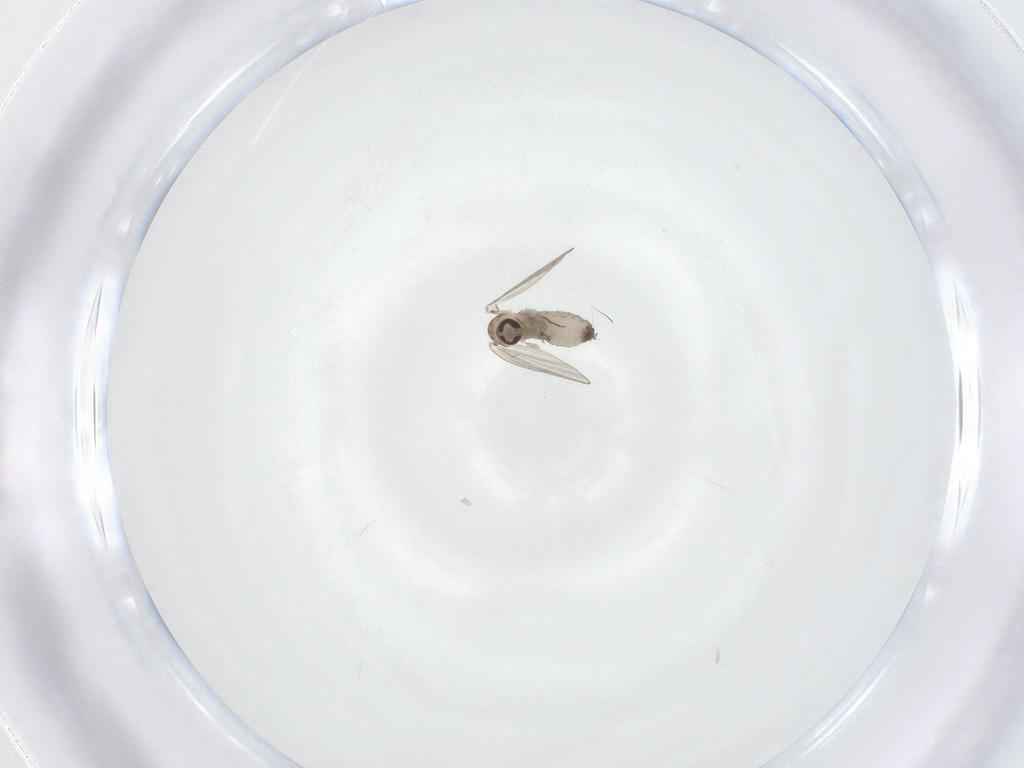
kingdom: Animalia
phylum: Arthropoda
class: Insecta
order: Diptera
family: Psychodidae
